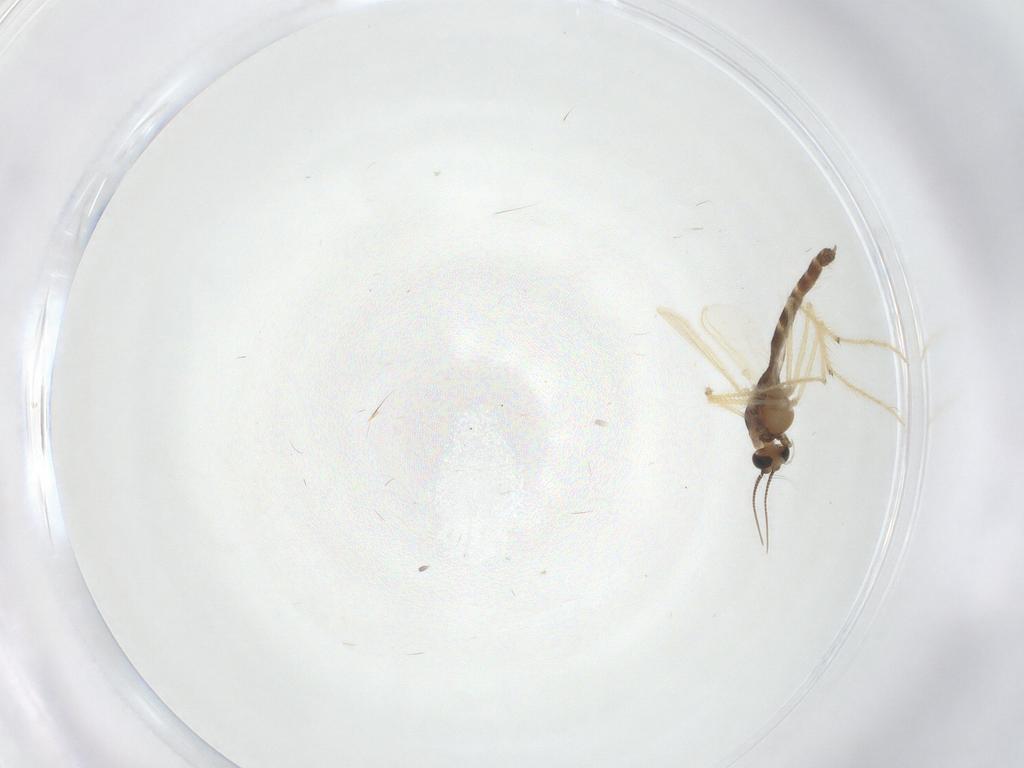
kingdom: Animalia
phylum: Arthropoda
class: Insecta
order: Diptera
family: Chironomidae
